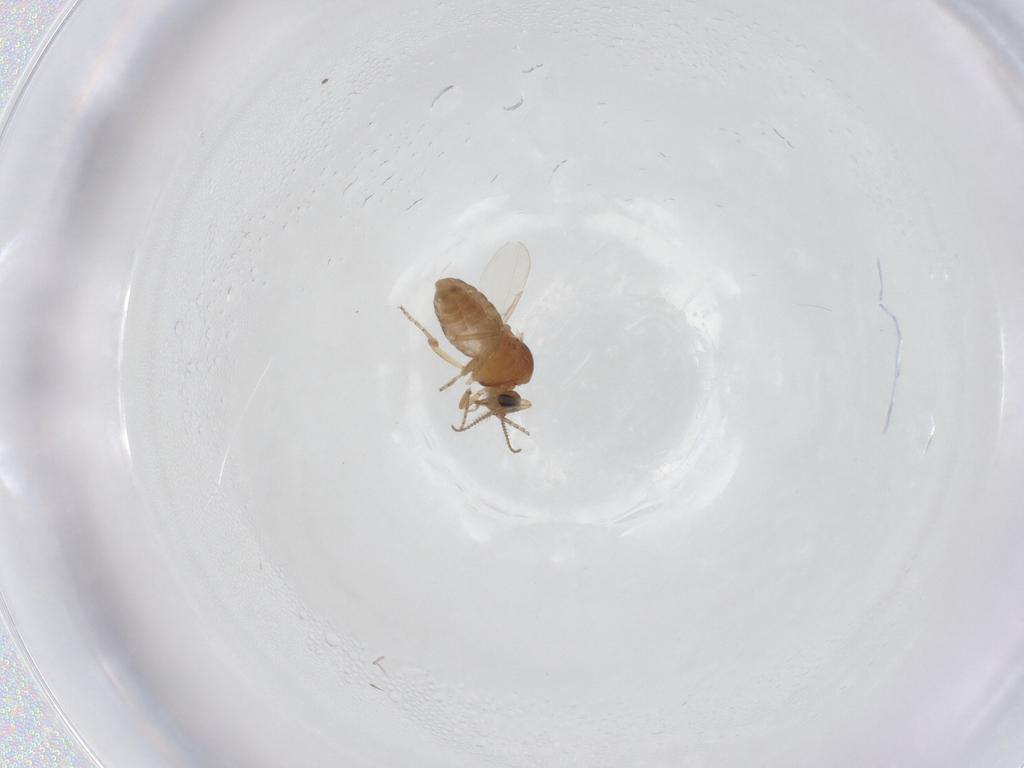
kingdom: Animalia
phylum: Arthropoda
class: Insecta
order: Diptera
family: Ceratopogonidae
